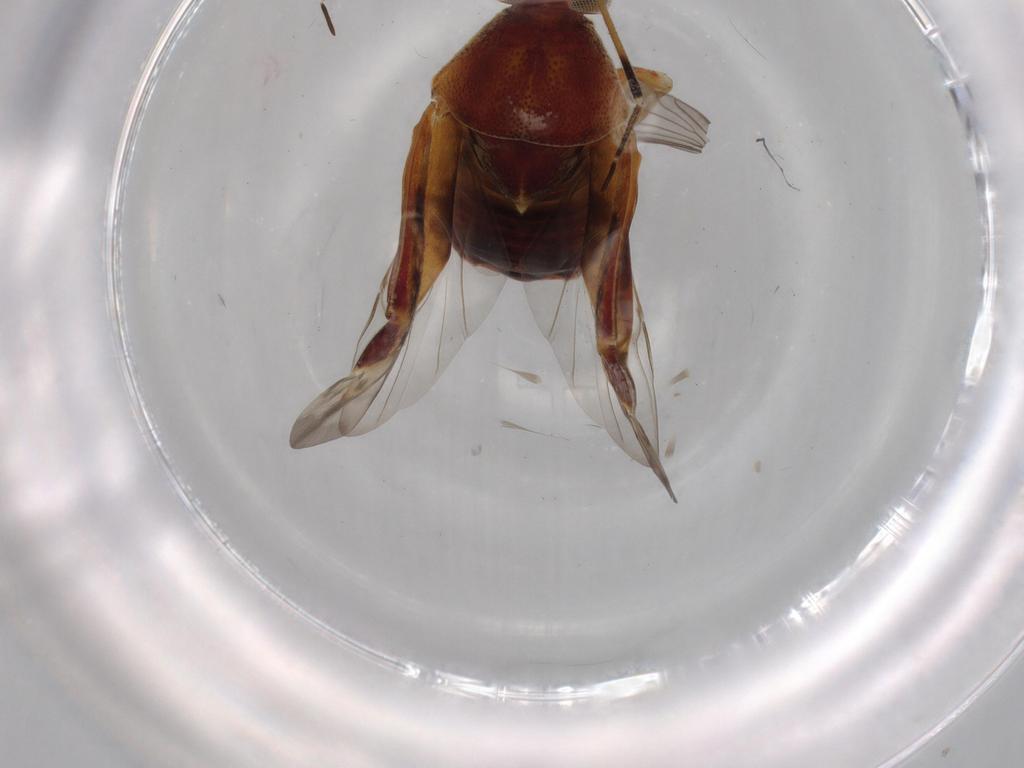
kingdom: Animalia
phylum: Arthropoda
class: Insecta
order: Hemiptera
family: Miridae
